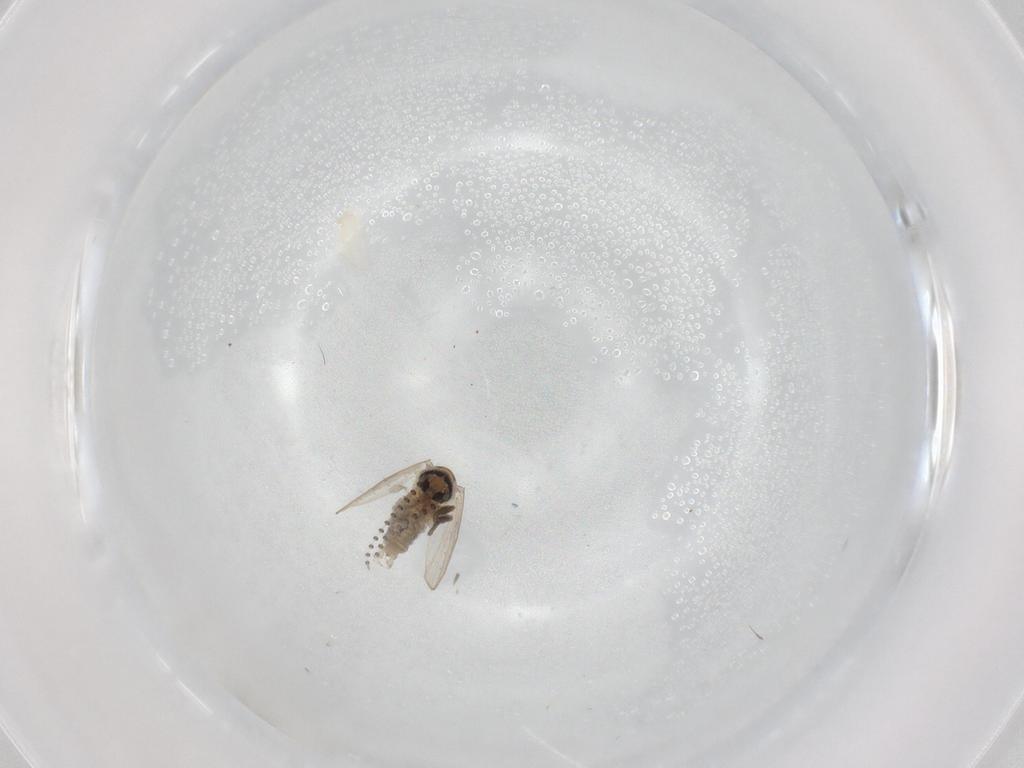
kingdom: Animalia
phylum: Arthropoda
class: Insecta
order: Diptera
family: Psychodidae
